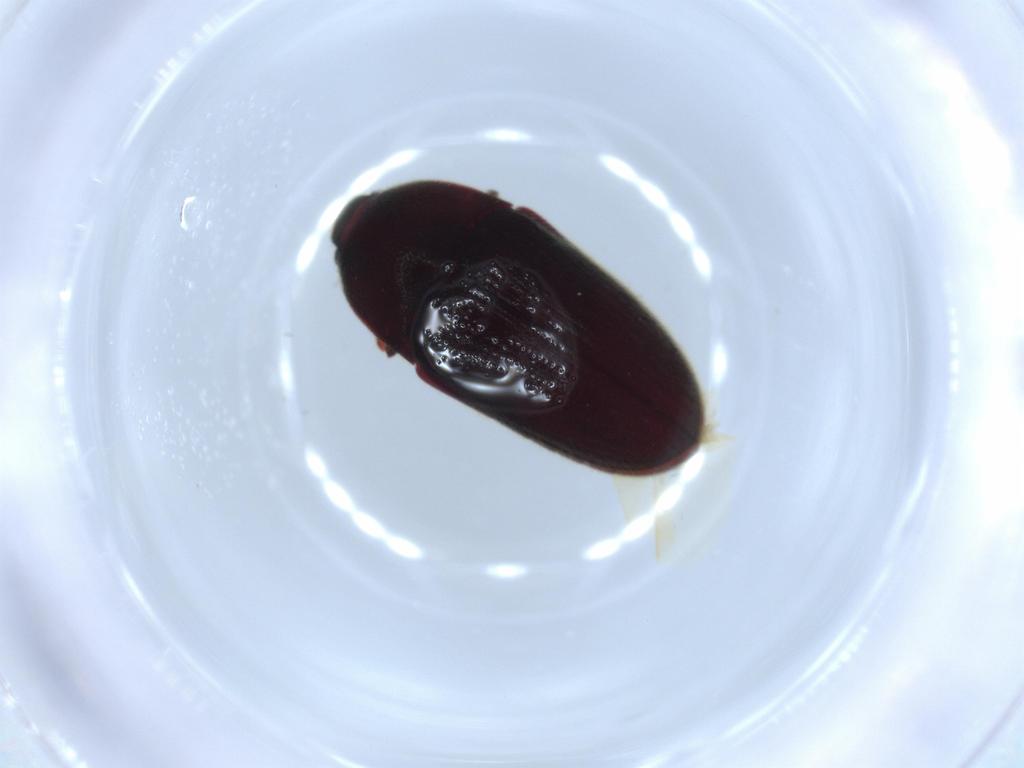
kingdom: Animalia
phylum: Arthropoda
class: Insecta
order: Coleoptera
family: Throscidae
